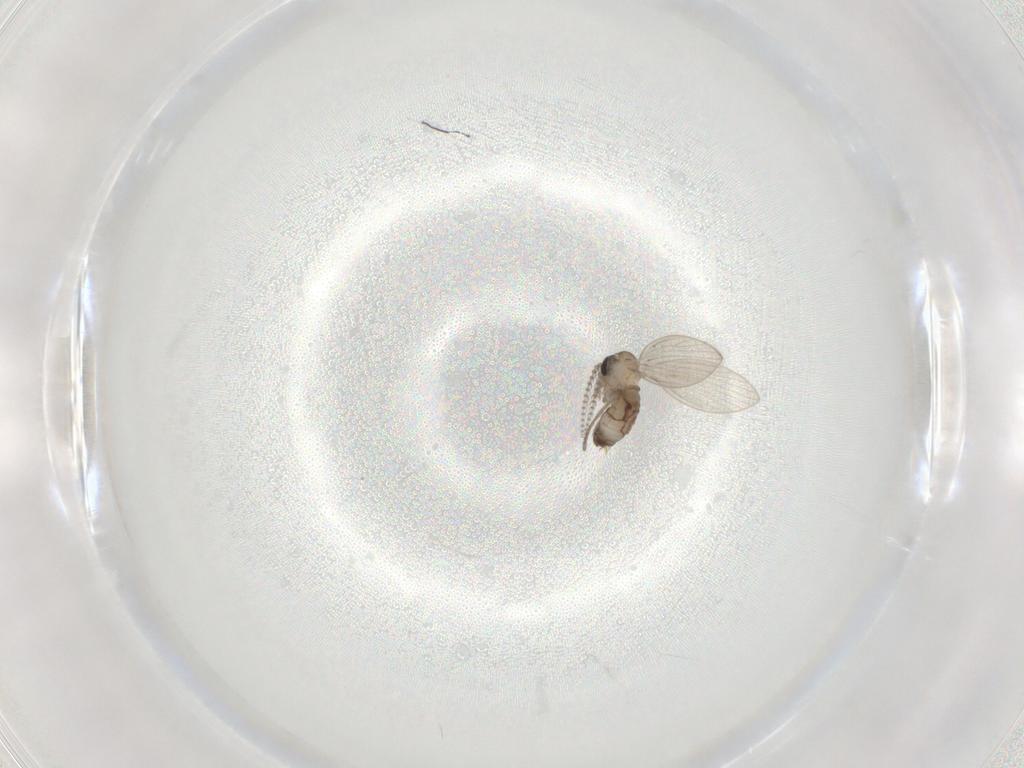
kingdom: Animalia
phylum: Arthropoda
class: Insecta
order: Diptera
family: Psychodidae
